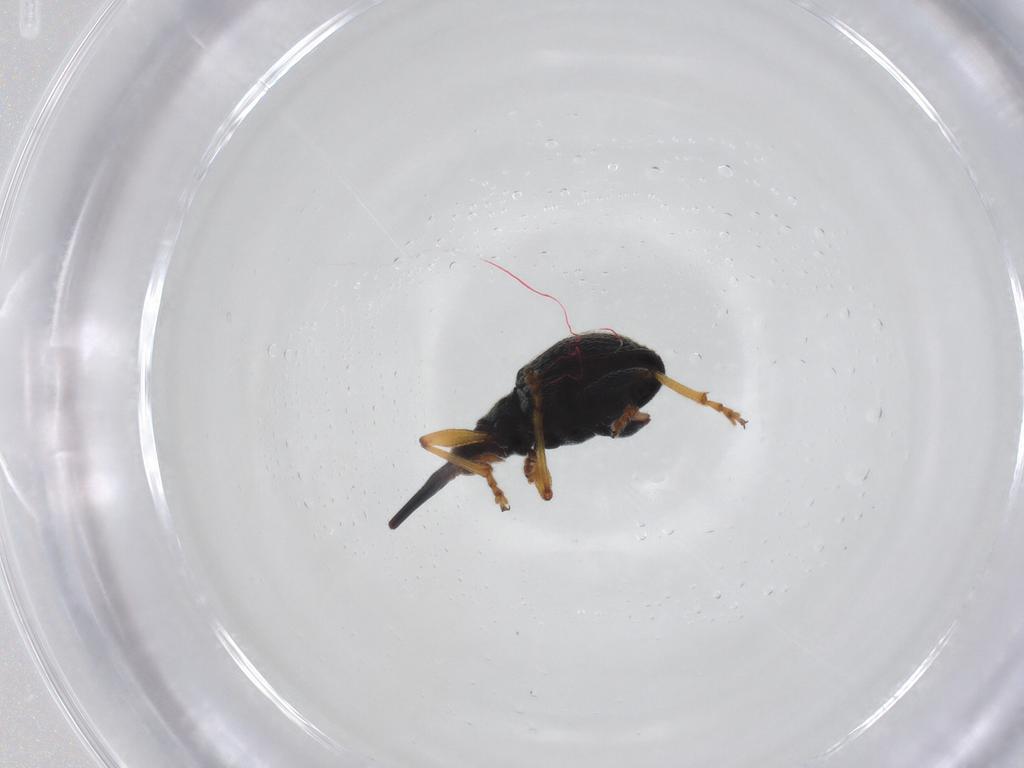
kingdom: Animalia
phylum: Arthropoda
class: Insecta
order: Coleoptera
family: Brentidae
